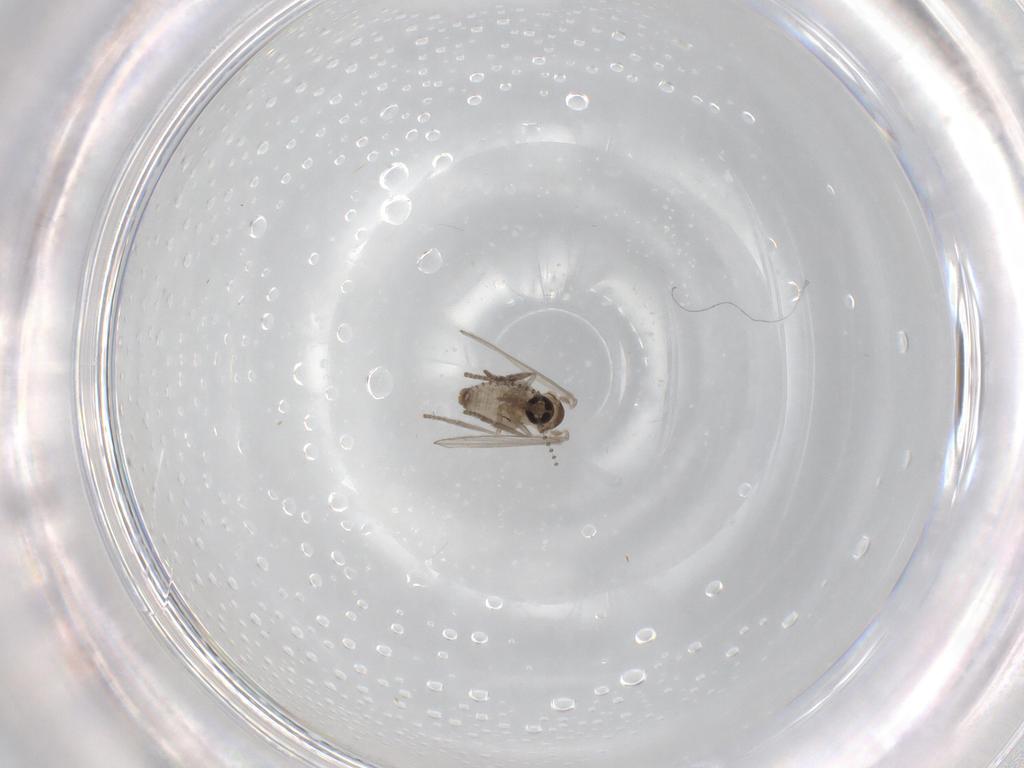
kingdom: Animalia
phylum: Arthropoda
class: Insecta
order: Diptera
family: Psychodidae
